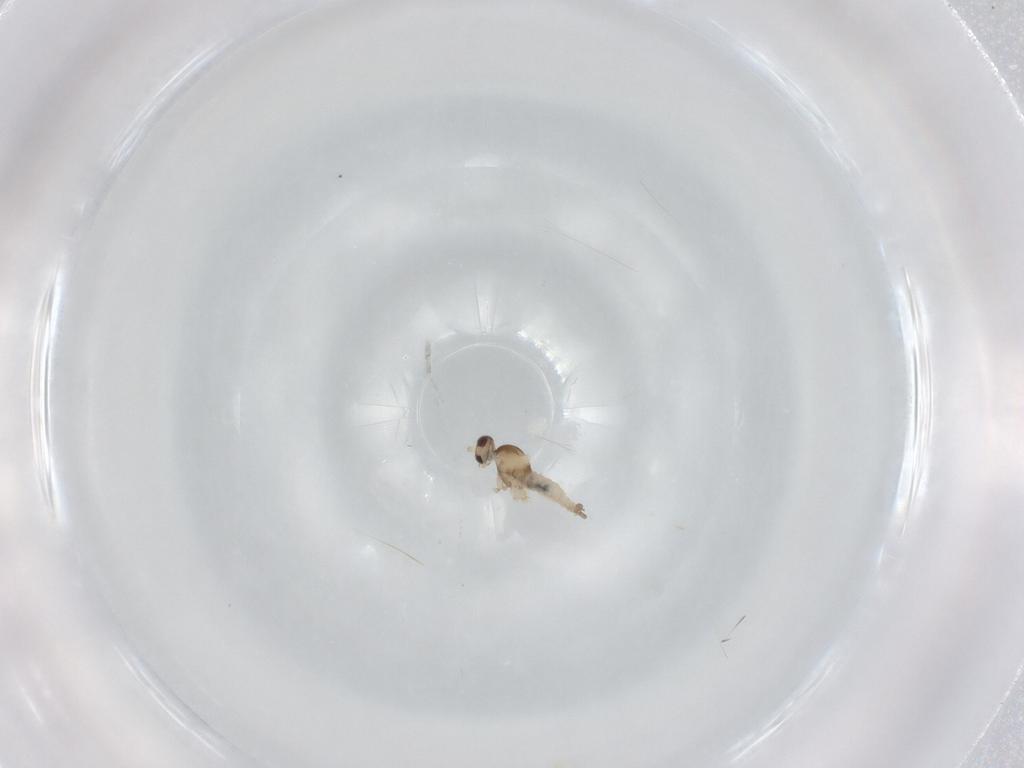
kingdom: Animalia
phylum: Arthropoda
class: Insecta
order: Diptera
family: Cecidomyiidae
